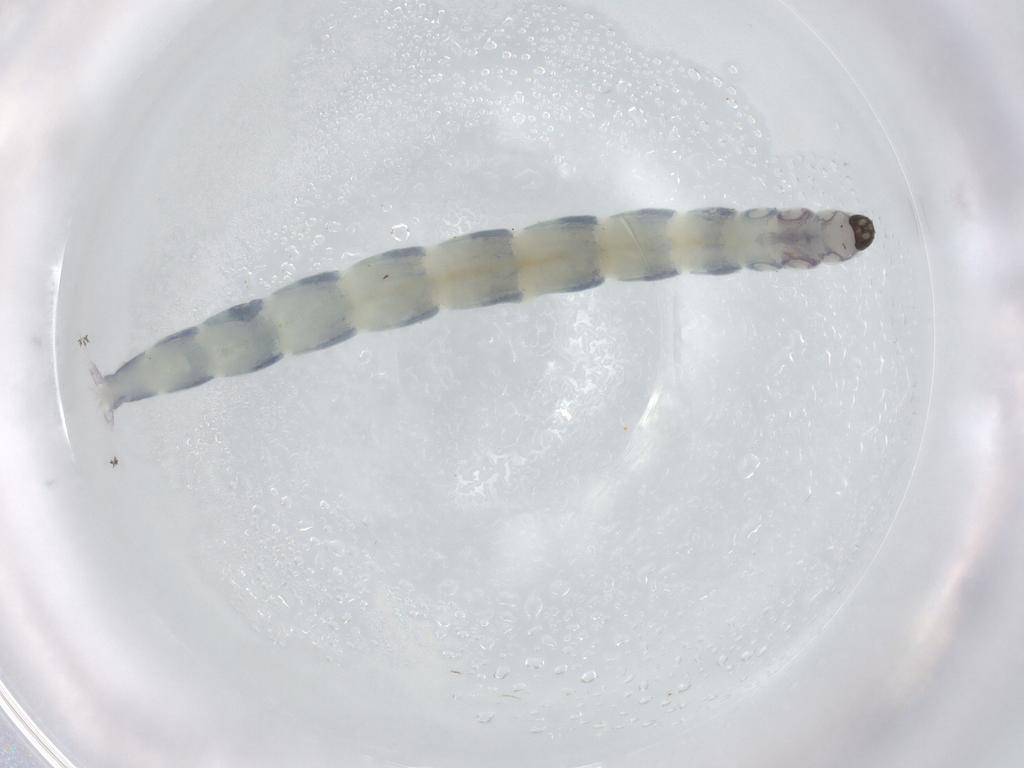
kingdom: Animalia
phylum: Arthropoda
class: Insecta
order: Diptera
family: Chironomidae
